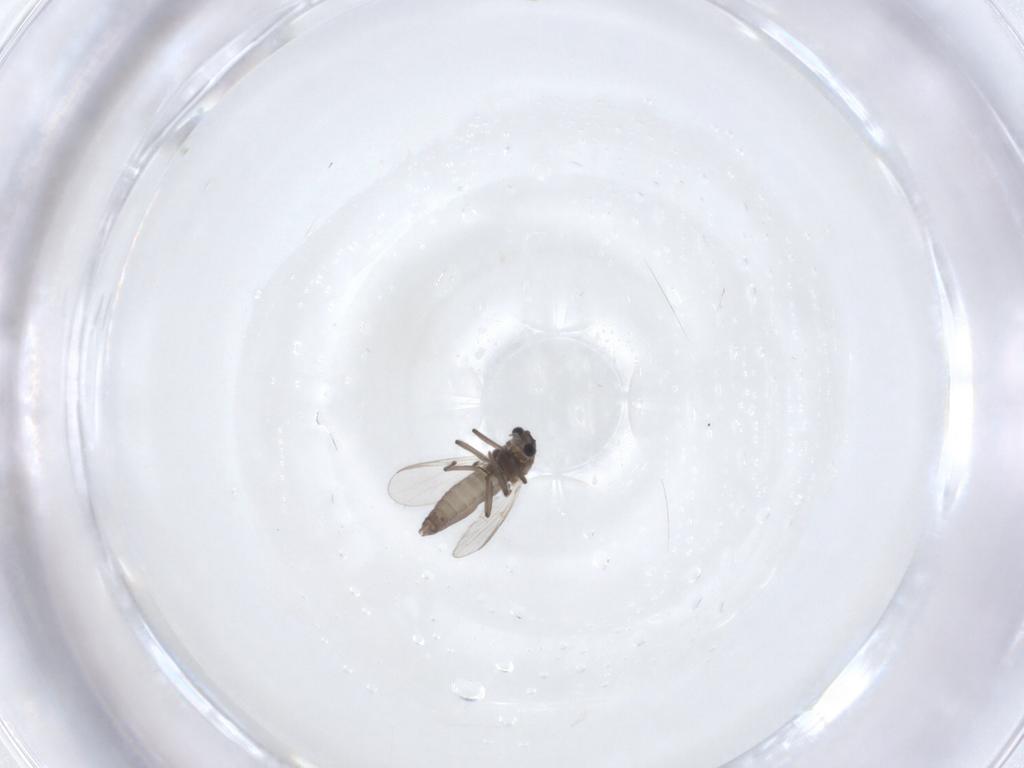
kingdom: Animalia
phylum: Arthropoda
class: Insecta
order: Diptera
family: Chironomidae
